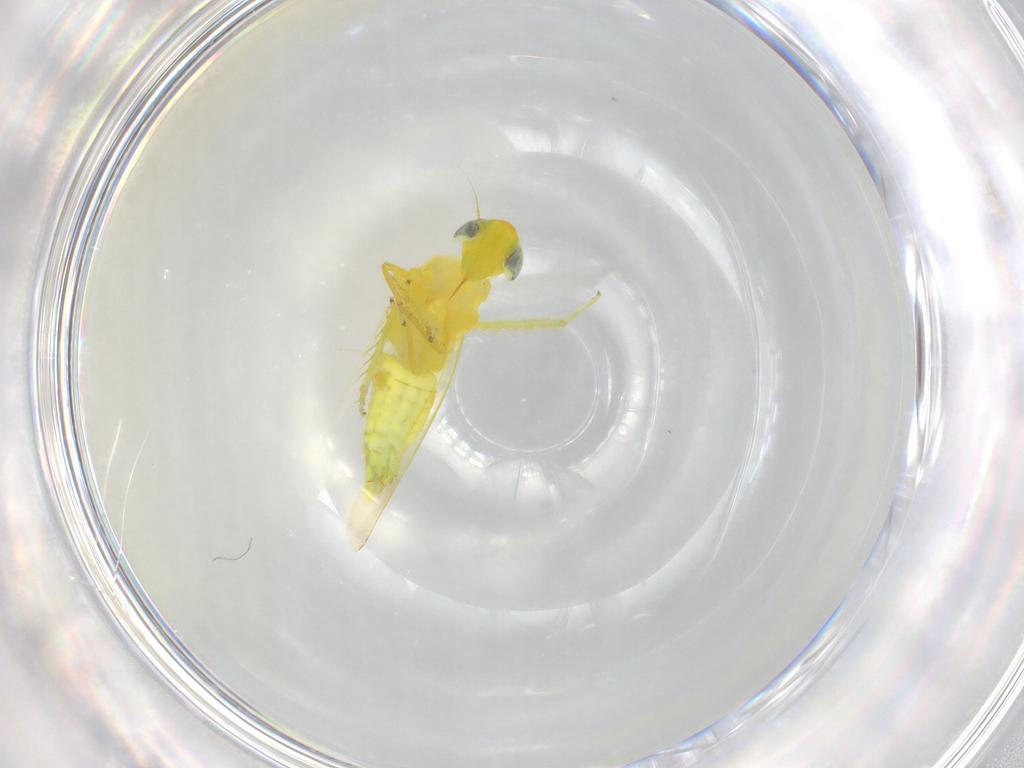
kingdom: Animalia
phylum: Arthropoda
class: Insecta
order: Hemiptera
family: Cicadellidae
